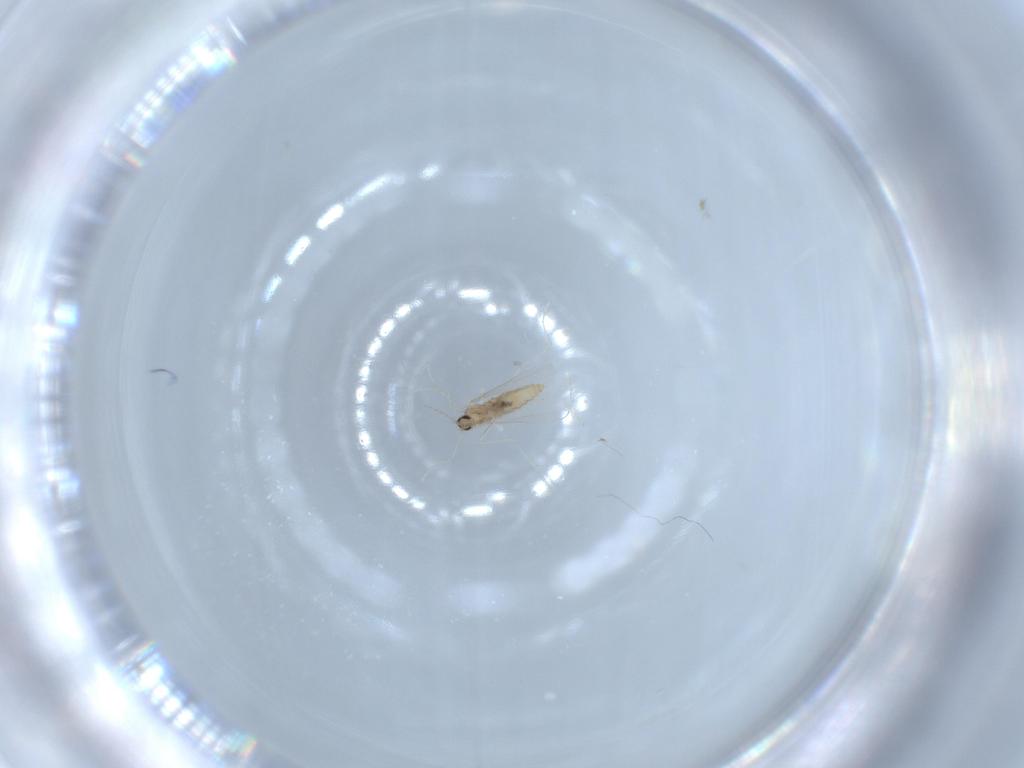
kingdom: Animalia
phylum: Arthropoda
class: Insecta
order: Diptera
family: Cecidomyiidae
